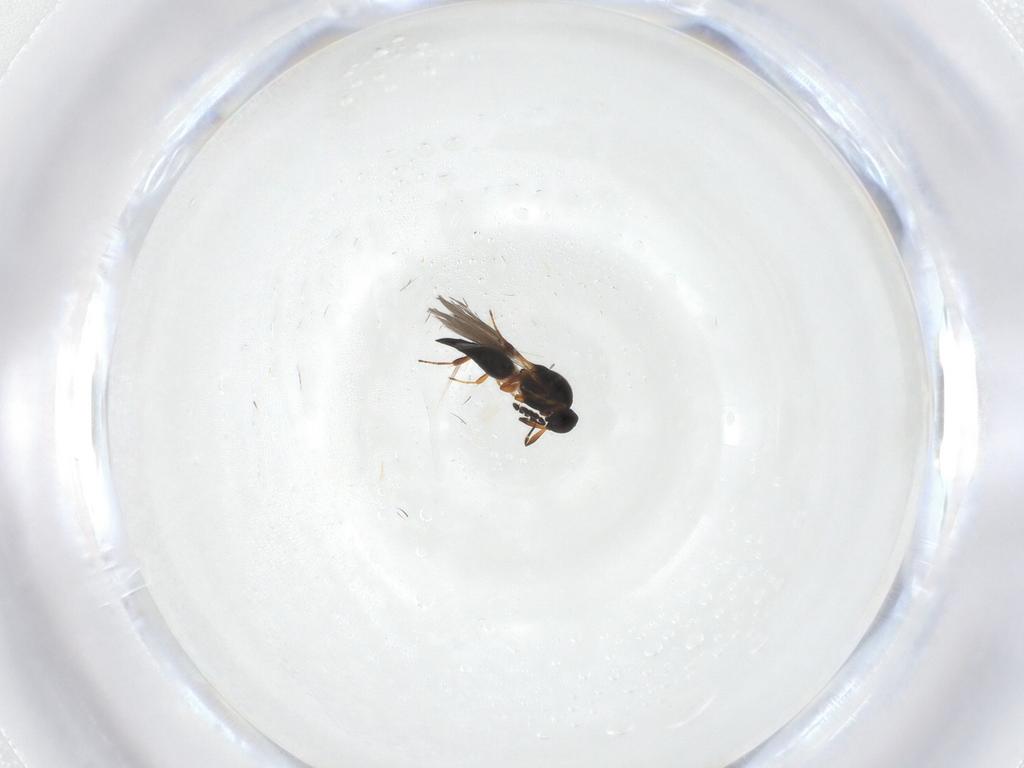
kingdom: Animalia
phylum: Arthropoda
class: Insecta
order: Hymenoptera
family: Platygastridae
